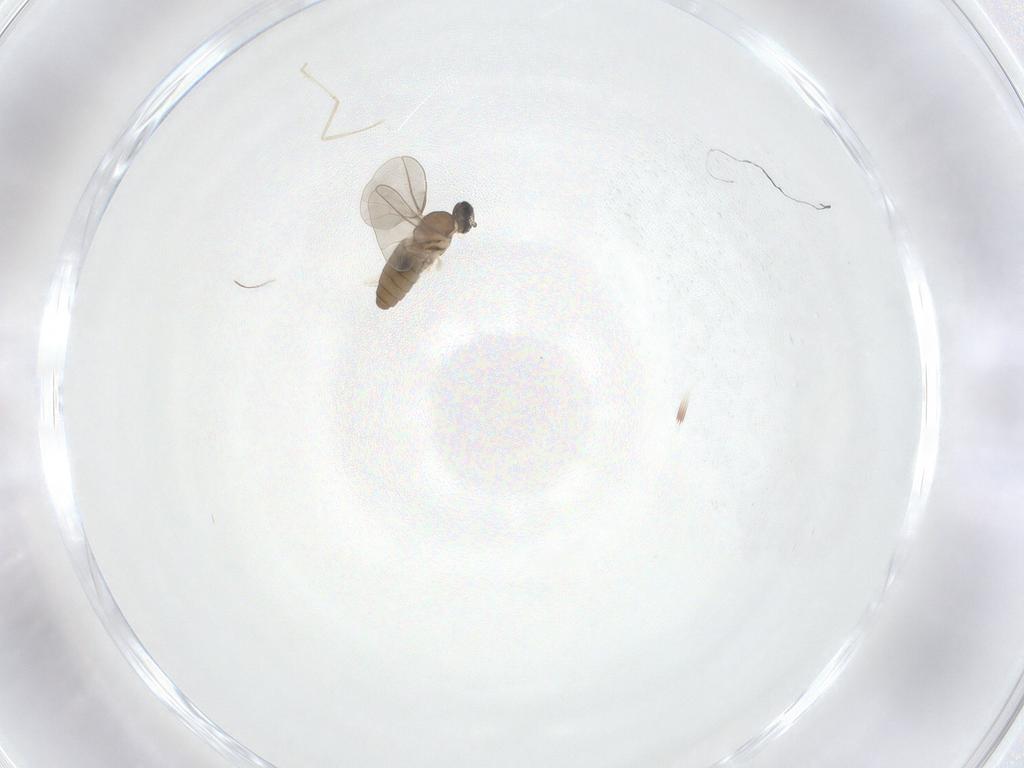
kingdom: Animalia
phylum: Arthropoda
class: Insecta
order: Diptera
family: Cecidomyiidae
